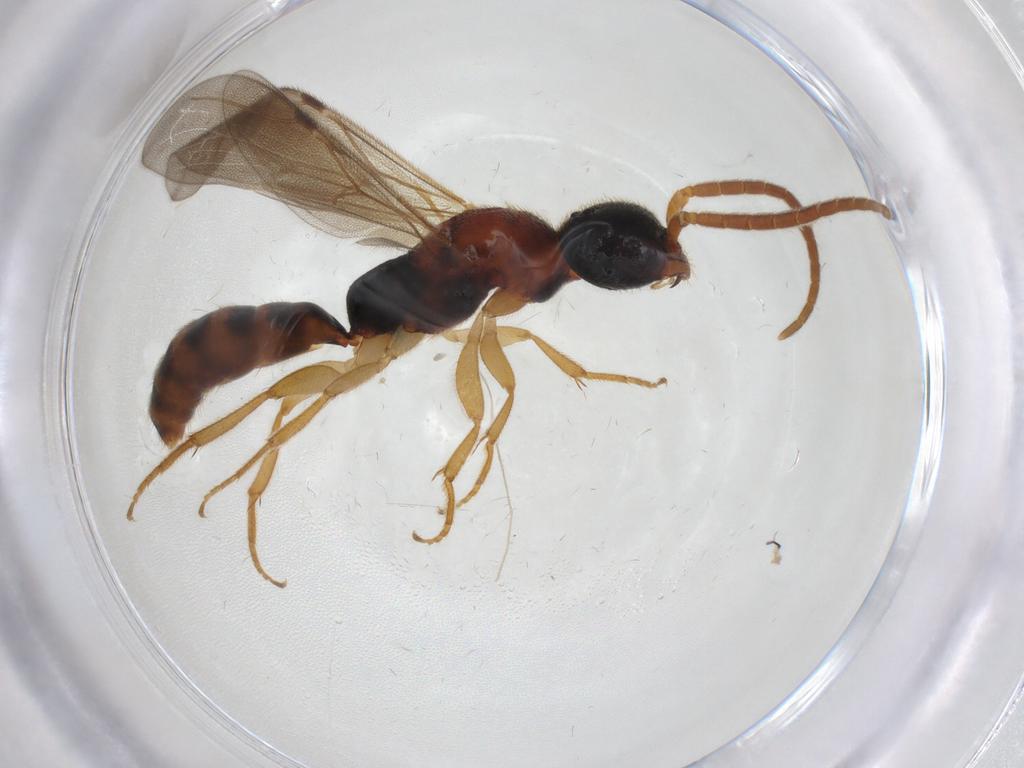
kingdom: Animalia
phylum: Arthropoda
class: Insecta
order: Hymenoptera
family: Bethylidae
